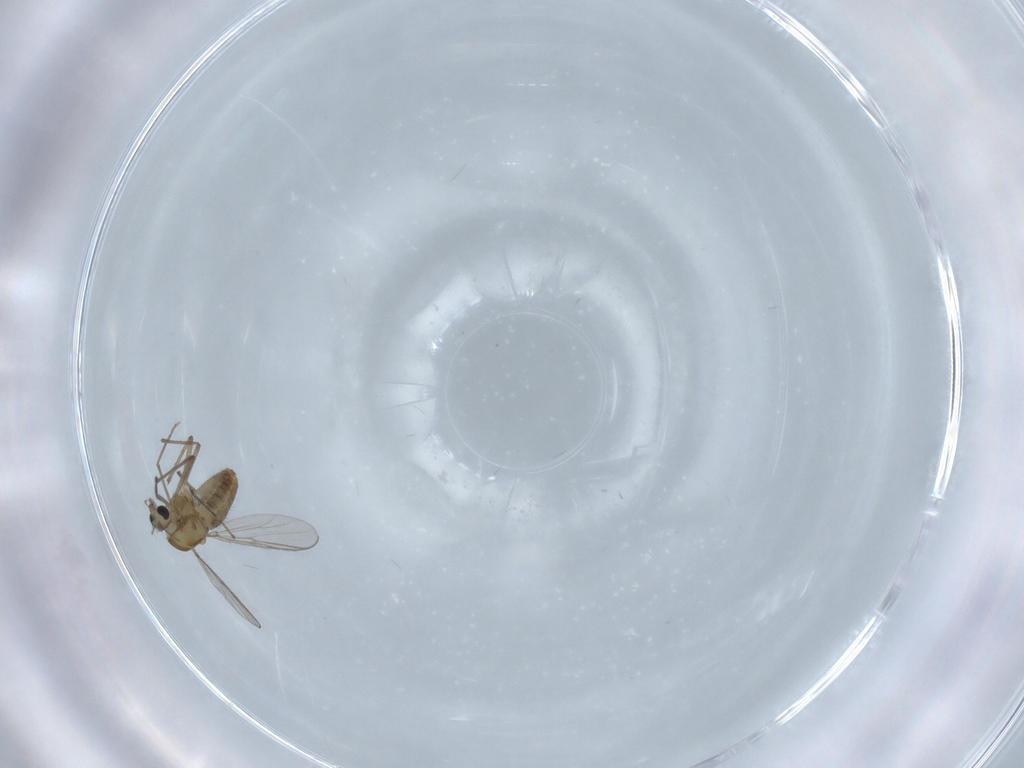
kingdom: Animalia
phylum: Arthropoda
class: Insecta
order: Diptera
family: Chironomidae
